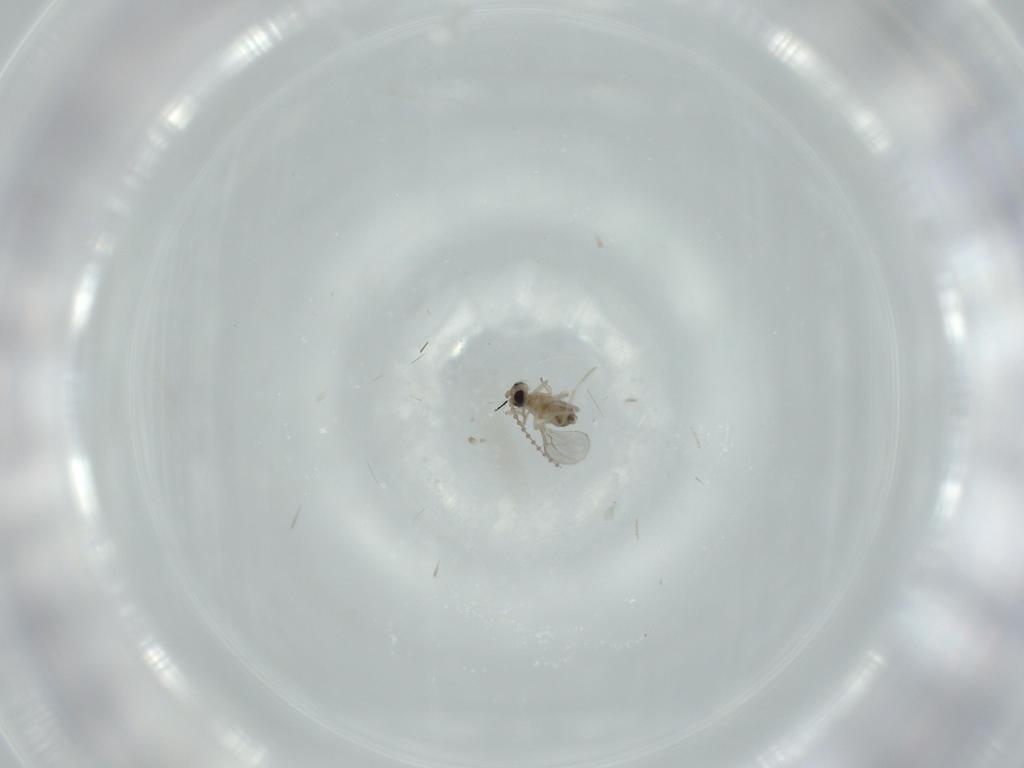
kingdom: Animalia
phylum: Arthropoda
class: Insecta
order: Diptera
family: Cecidomyiidae
